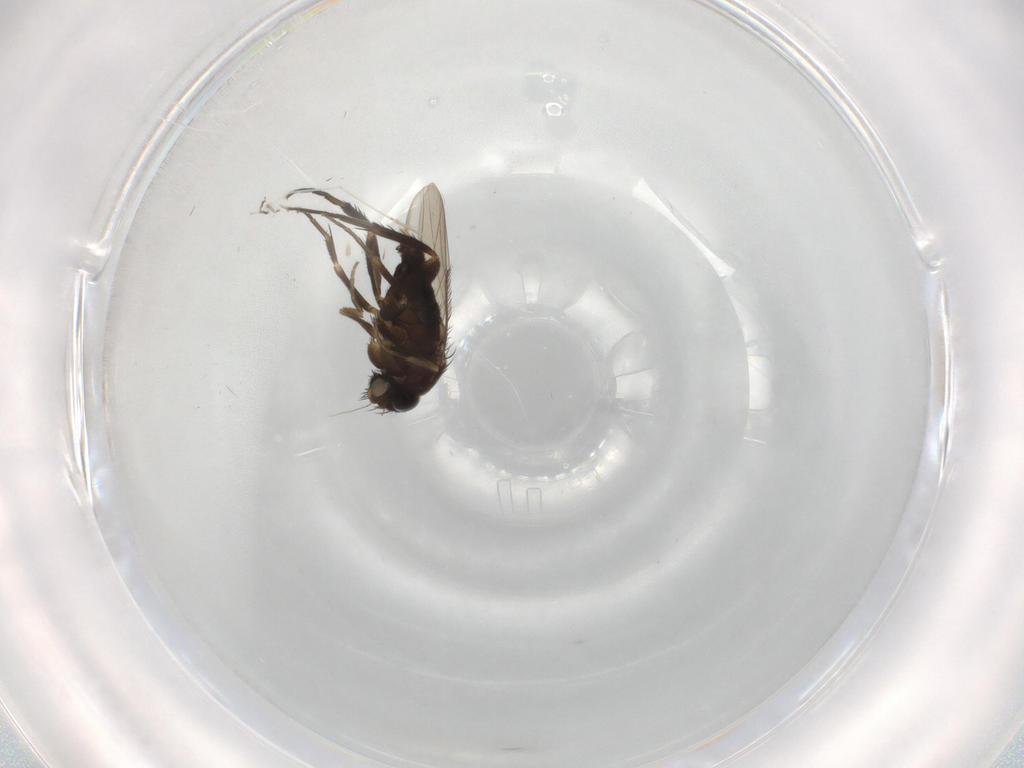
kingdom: Animalia
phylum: Arthropoda
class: Insecta
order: Diptera
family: Phoridae
